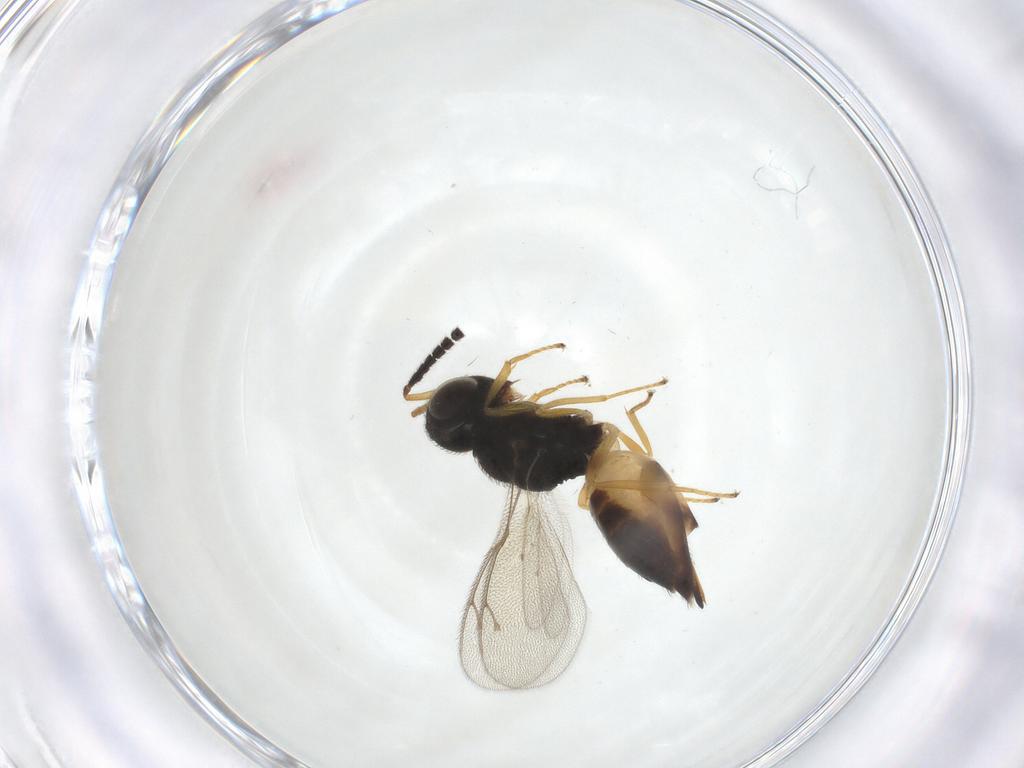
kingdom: Animalia
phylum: Arthropoda
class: Insecta
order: Hymenoptera
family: Pteromalidae
